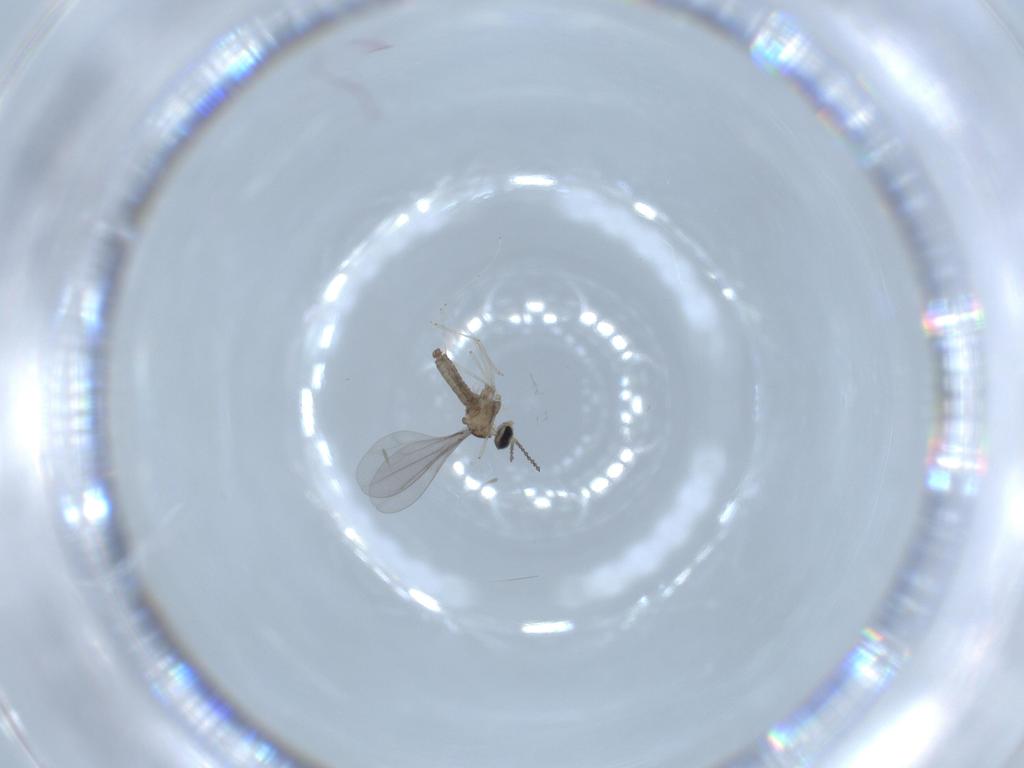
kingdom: Animalia
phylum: Arthropoda
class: Insecta
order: Diptera
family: Cecidomyiidae
